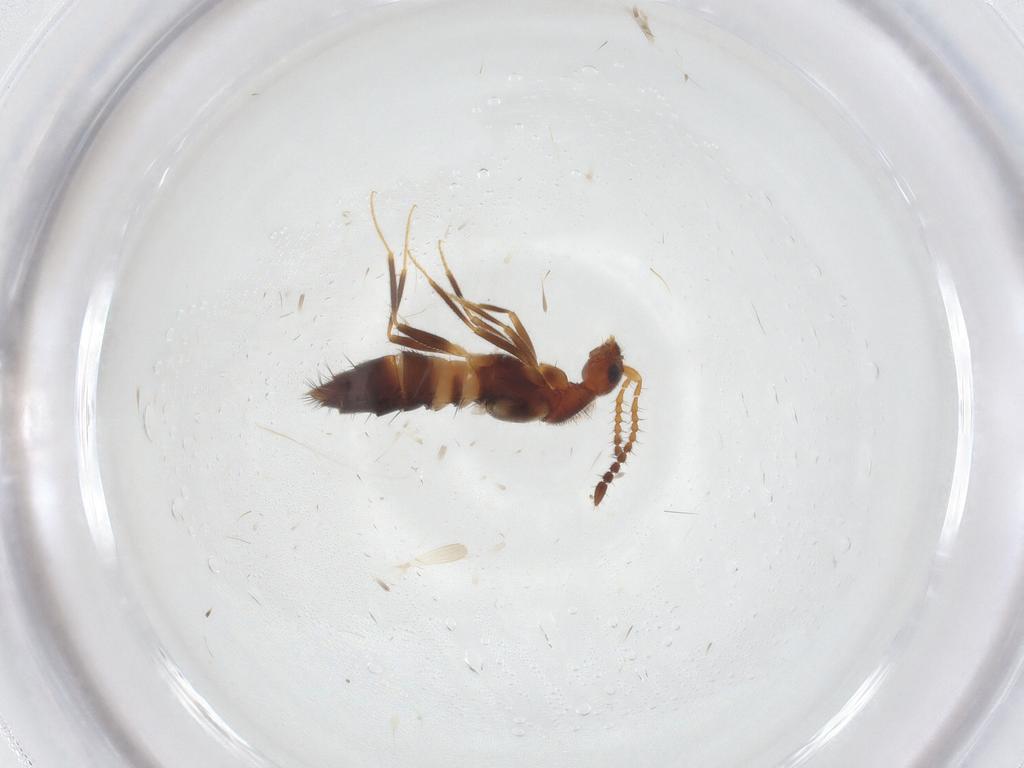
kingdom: Animalia
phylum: Arthropoda
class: Insecta
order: Coleoptera
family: Staphylinidae
